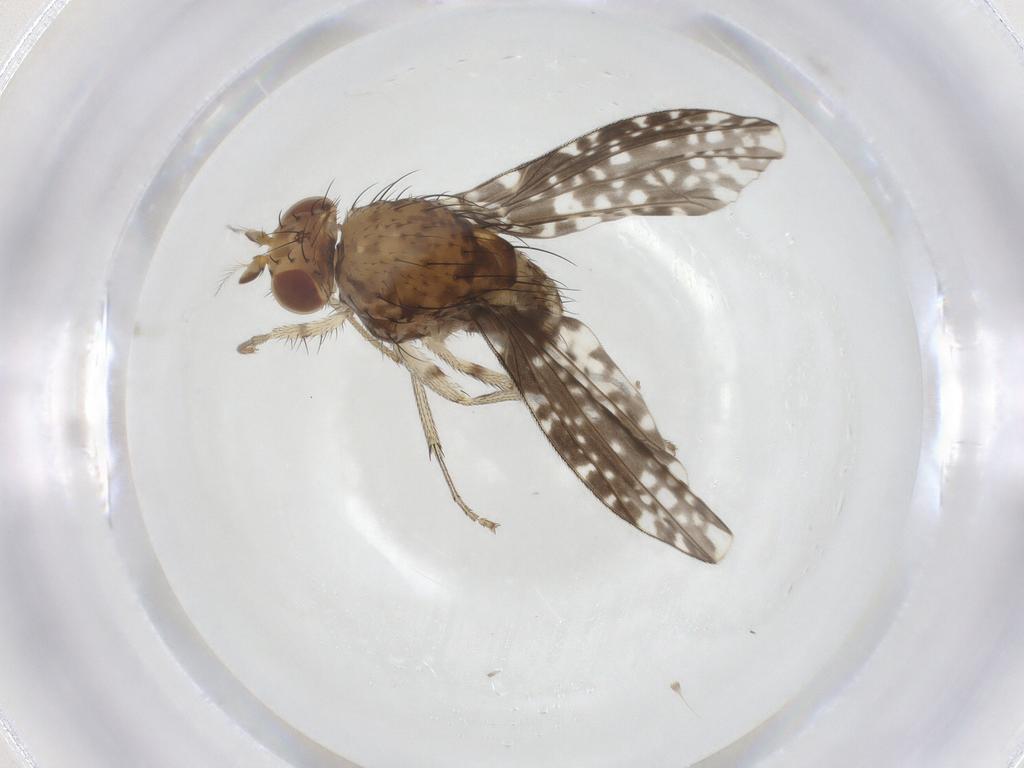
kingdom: Animalia
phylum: Arthropoda
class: Insecta
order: Diptera
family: Lauxaniidae
